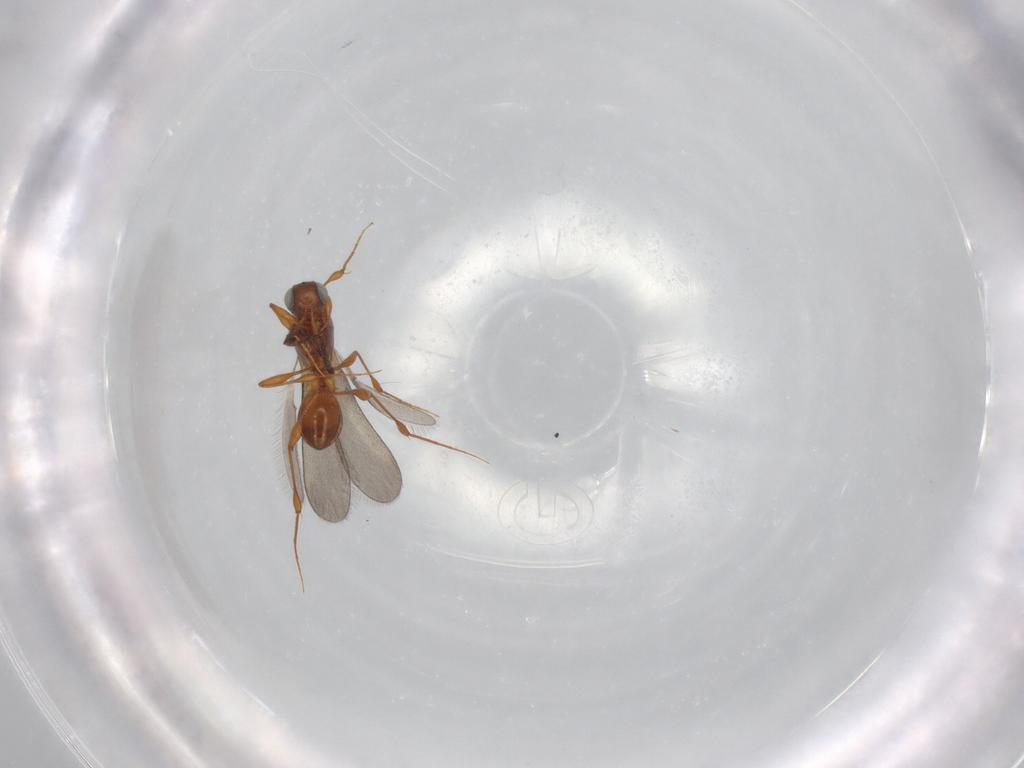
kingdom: Animalia
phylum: Arthropoda
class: Insecta
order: Hymenoptera
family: Platygastridae
